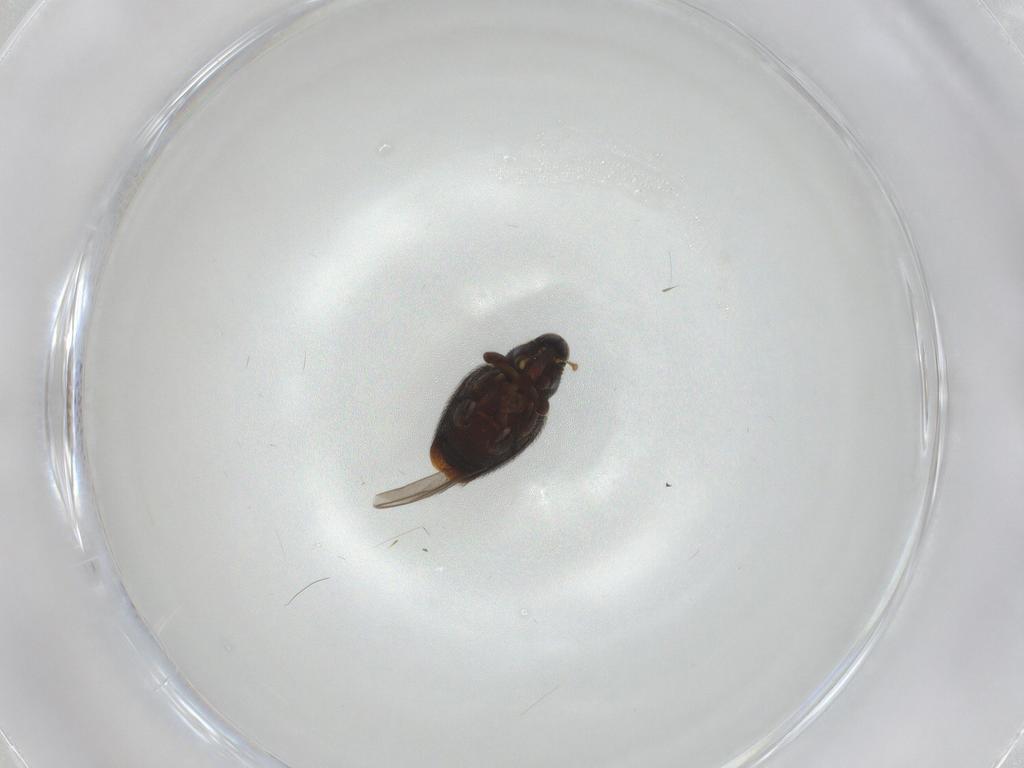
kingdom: Animalia
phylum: Arthropoda
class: Insecta
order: Coleoptera
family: Curculionidae
